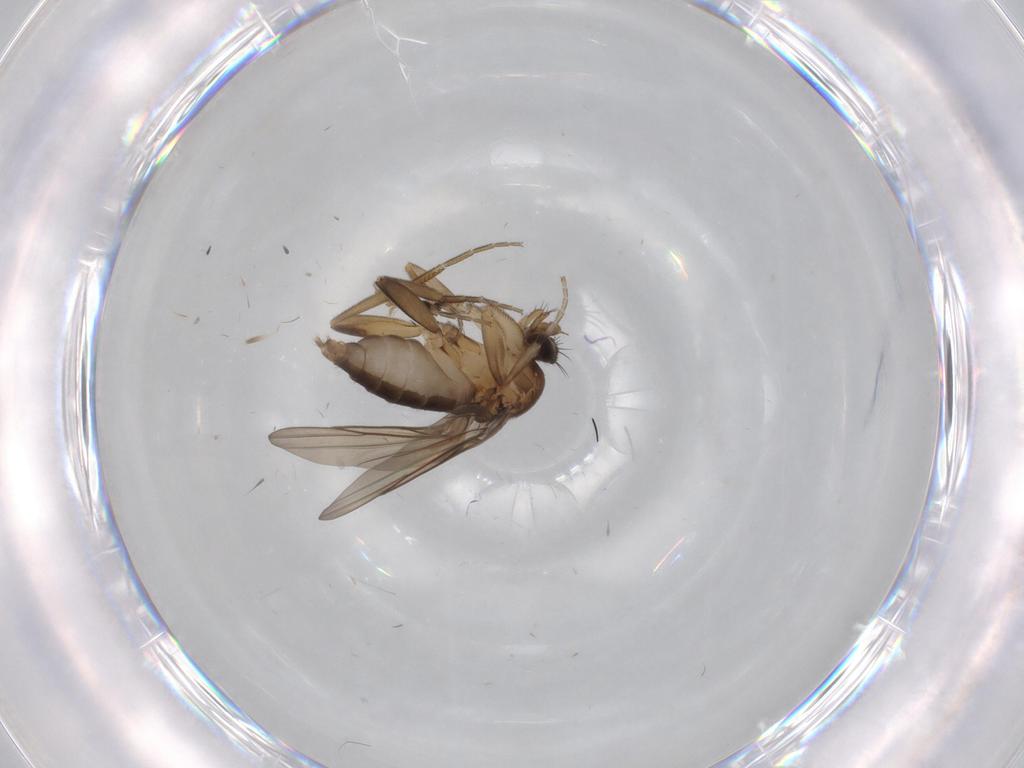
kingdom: Animalia
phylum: Arthropoda
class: Insecta
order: Diptera
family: Chironomidae
